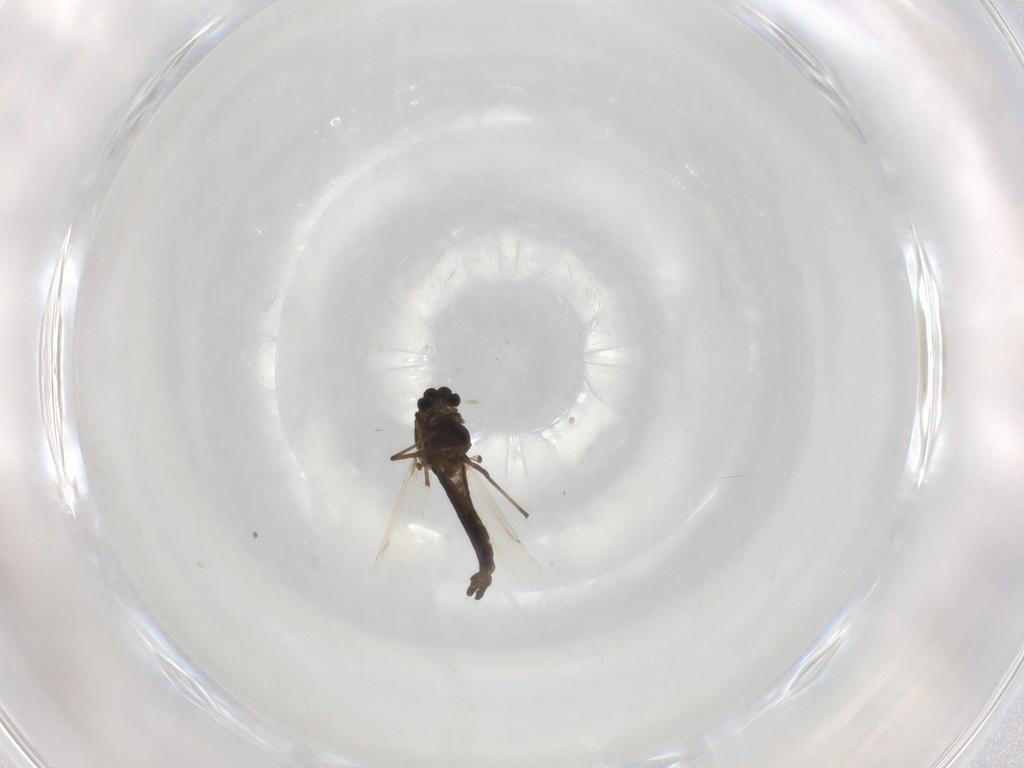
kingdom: Animalia
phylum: Arthropoda
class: Insecta
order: Diptera
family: Chironomidae
